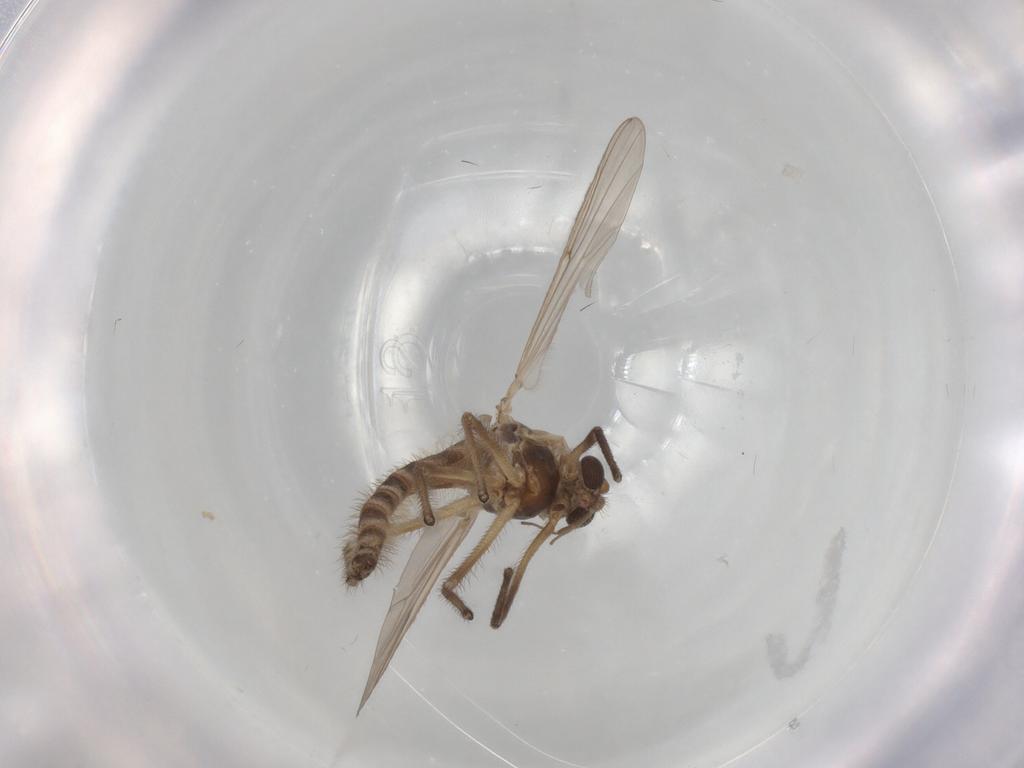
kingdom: Animalia
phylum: Arthropoda
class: Insecta
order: Diptera
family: Chironomidae
